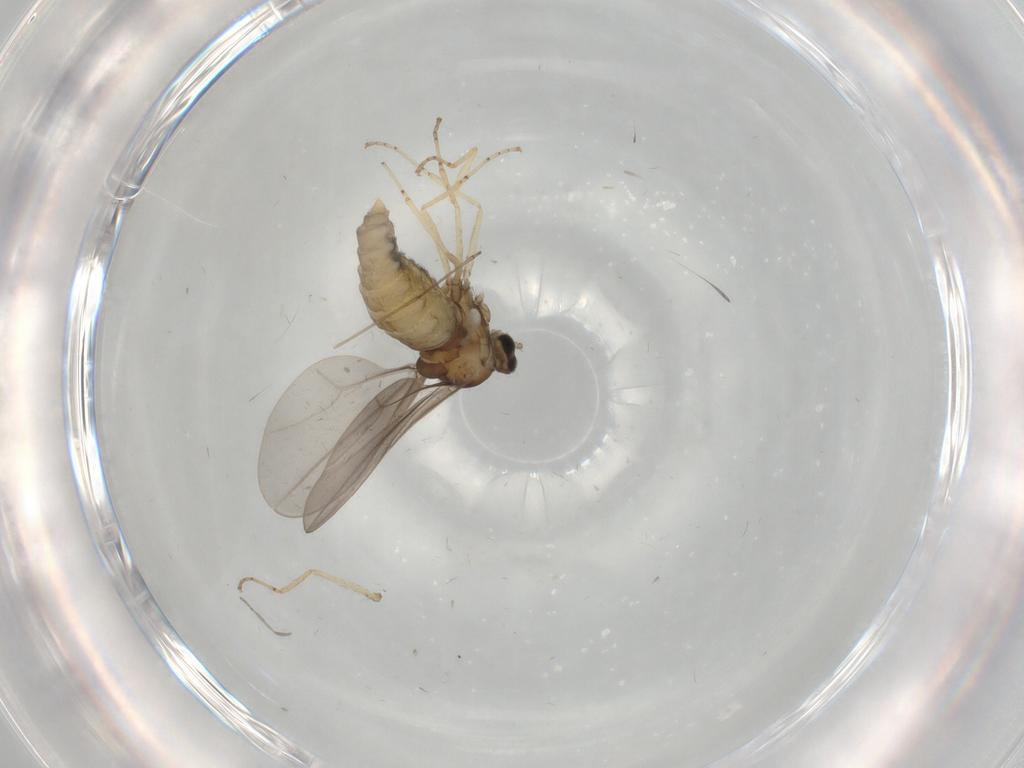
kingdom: Animalia
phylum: Arthropoda
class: Insecta
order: Diptera
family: Cecidomyiidae
